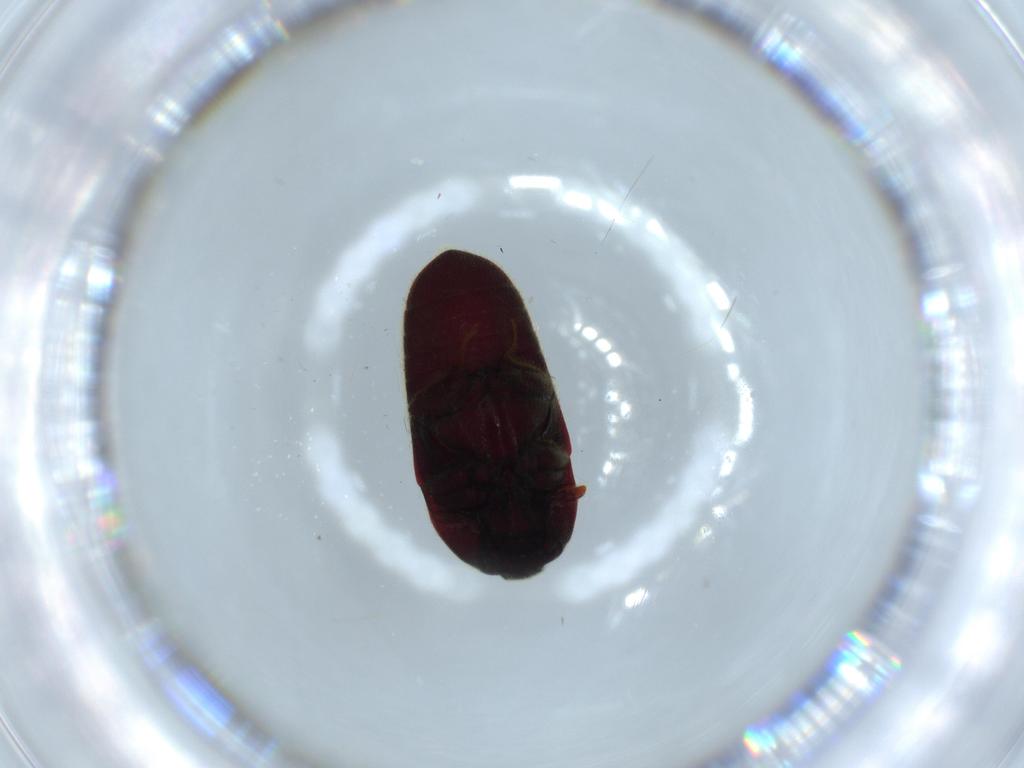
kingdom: Animalia
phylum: Arthropoda
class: Insecta
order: Coleoptera
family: Throscidae
